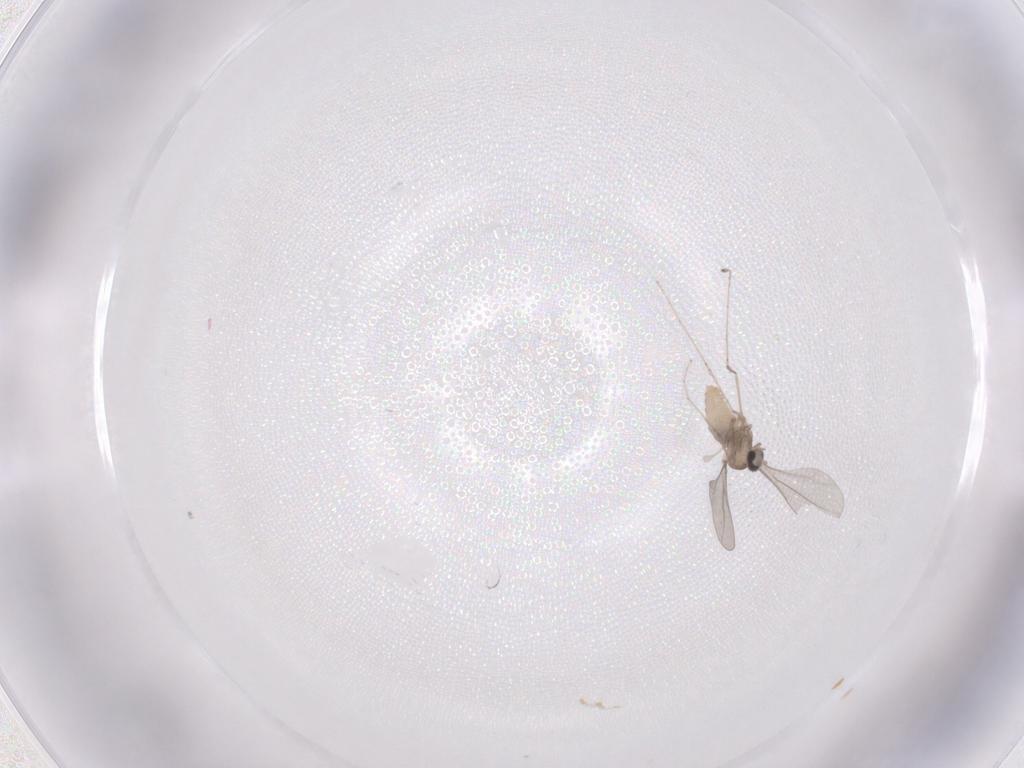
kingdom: Animalia
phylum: Arthropoda
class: Insecta
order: Diptera
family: Cecidomyiidae
